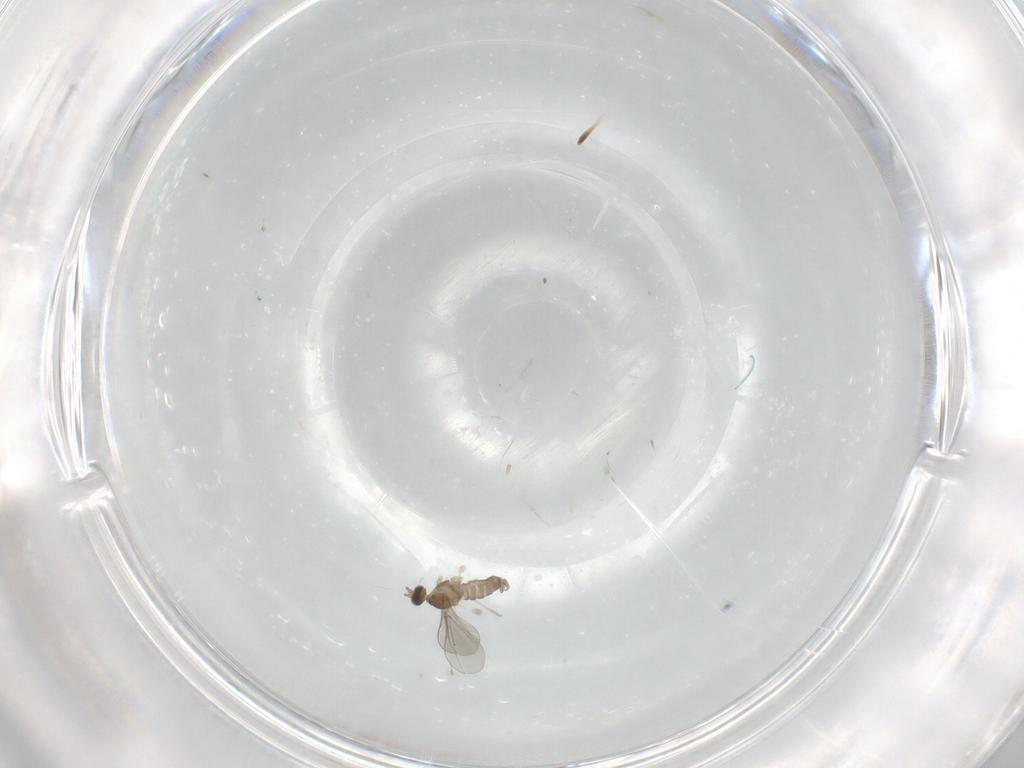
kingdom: Animalia
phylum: Arthropoda
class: Insecta
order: Diptera
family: Cecidomyiidae
